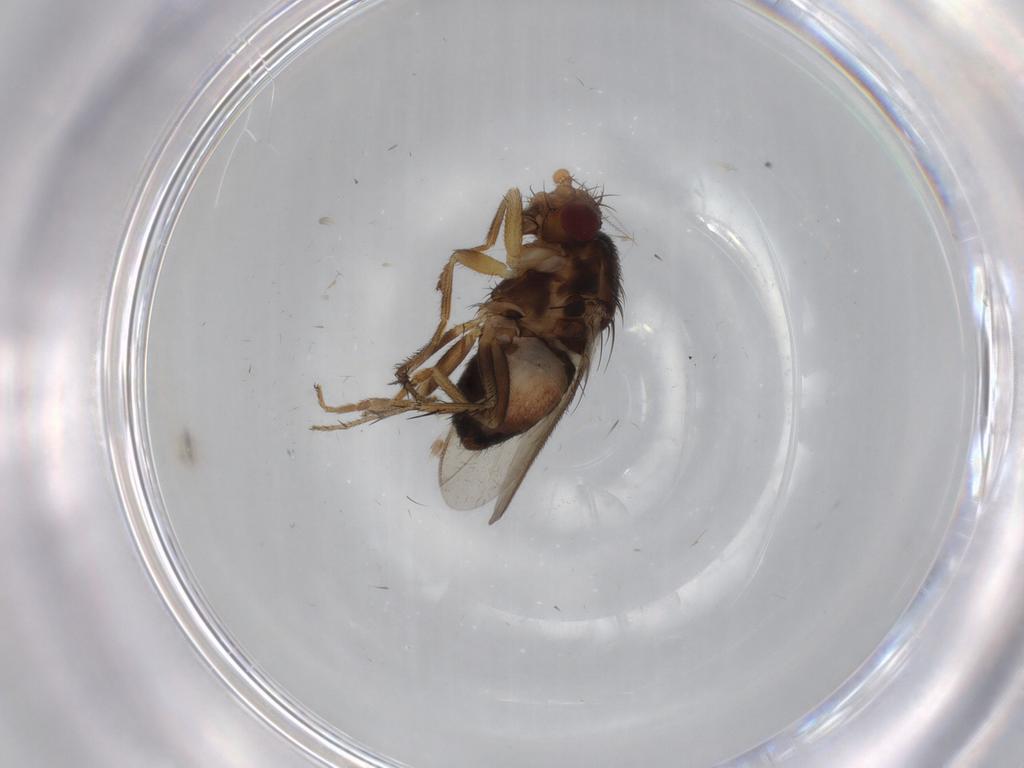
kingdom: Animalia
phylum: Arthropoda
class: Insecta
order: Diptera
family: Sphaeroceridae
